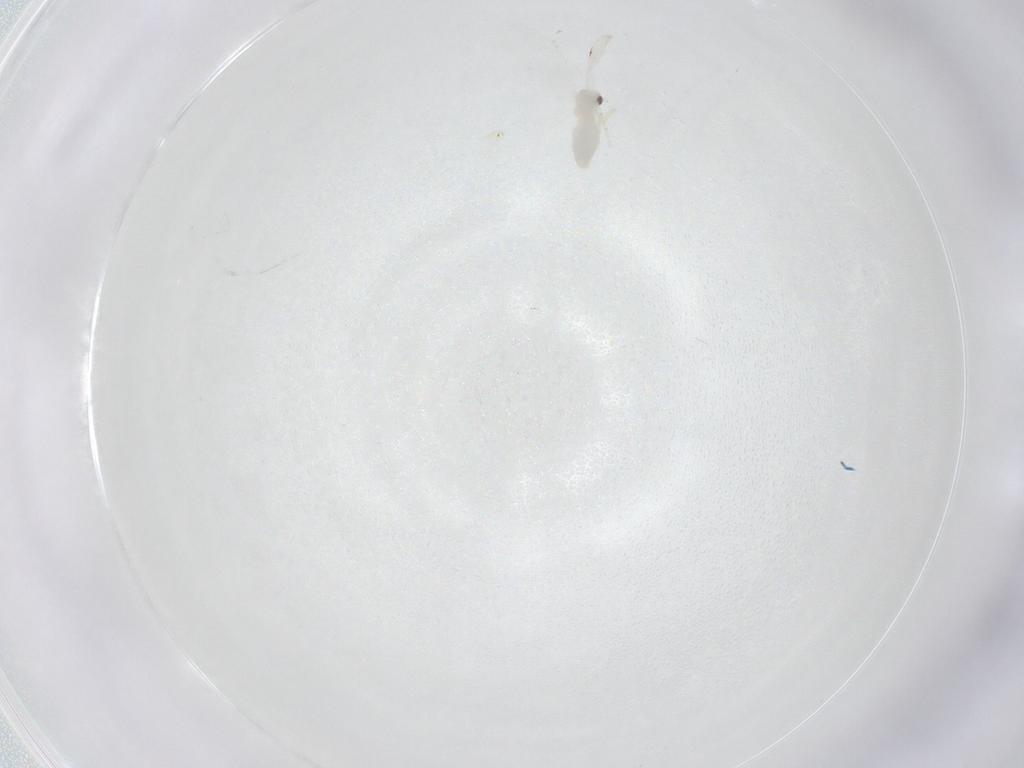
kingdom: Animalia
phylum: Arthropoda
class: Insecta
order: Hemiptera
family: Aleyrodidae
